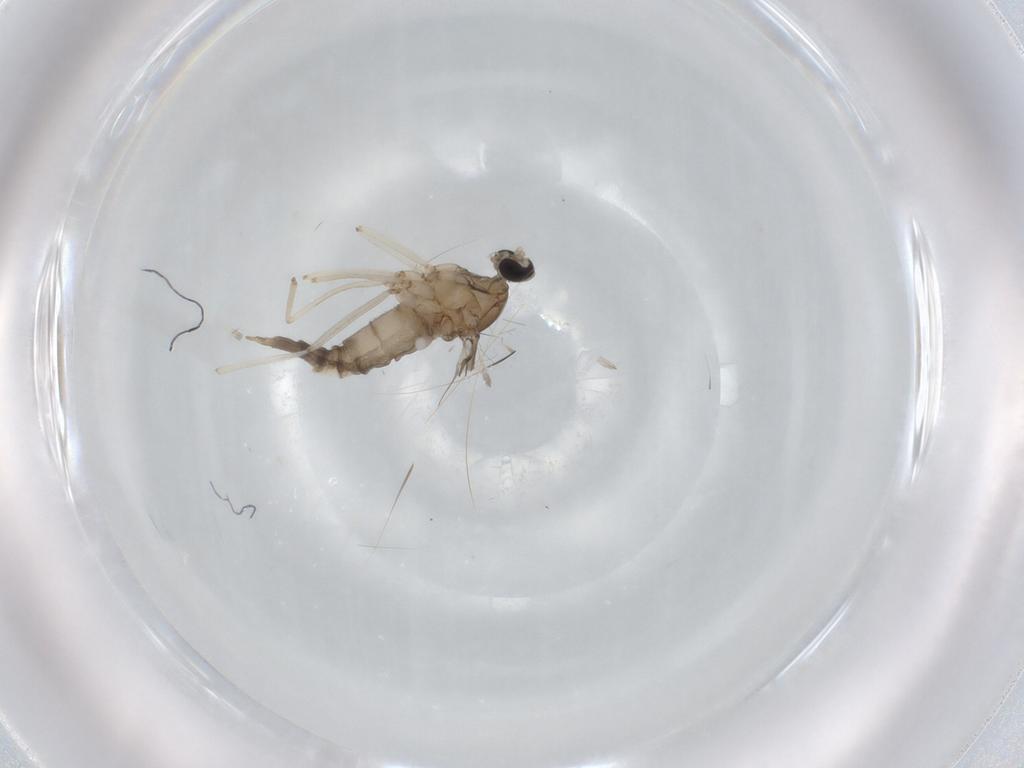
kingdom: Animalia
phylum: Arthropoda
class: Insecta
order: Diptera
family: Cecidomyiidae
